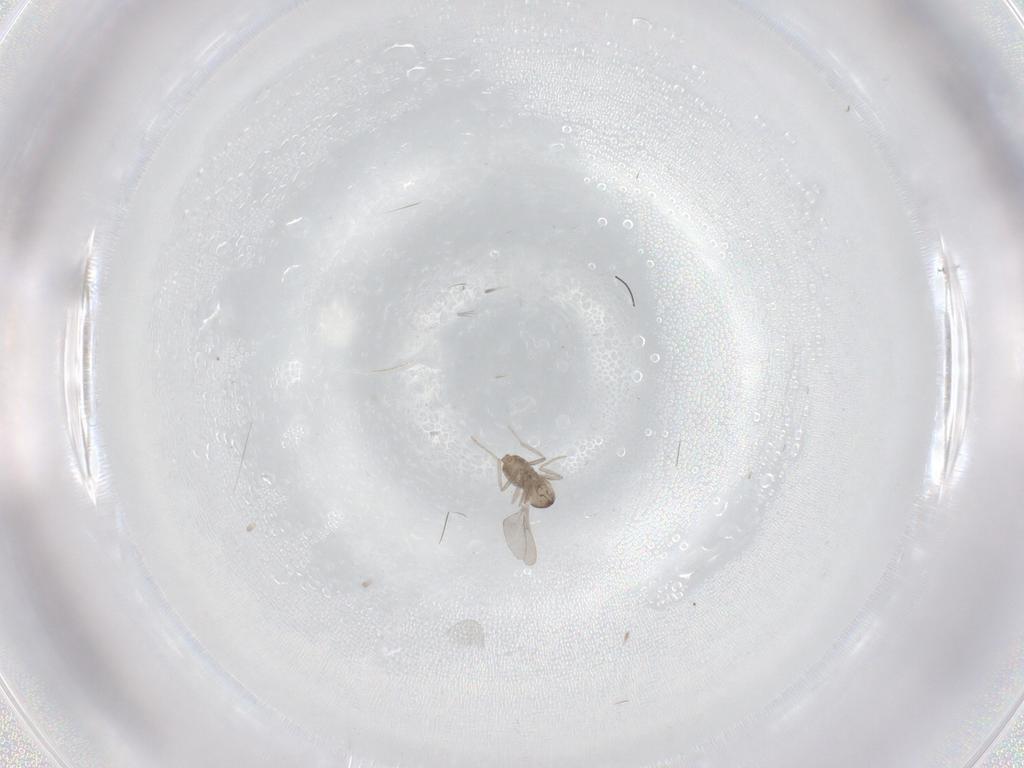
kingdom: Animalia
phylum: Arthropoda
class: Insecta
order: Diptera
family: Cecidomyiidae
